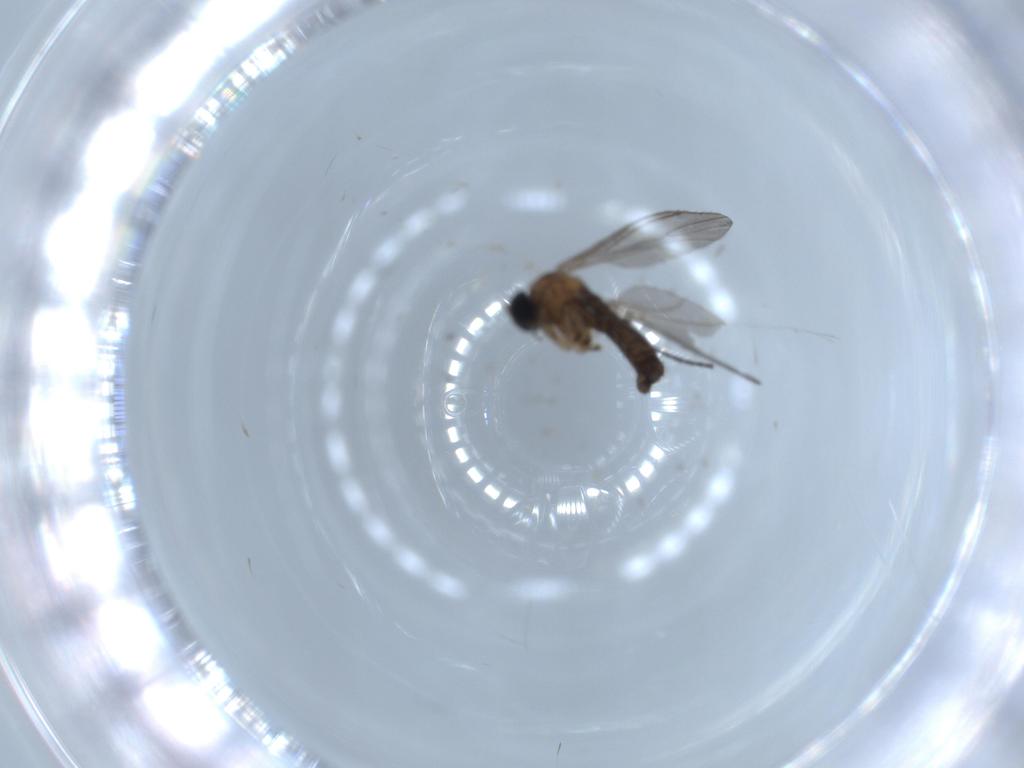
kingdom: Animalia
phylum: Arthropoda
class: Insecta
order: Diptera
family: Sciaridae
